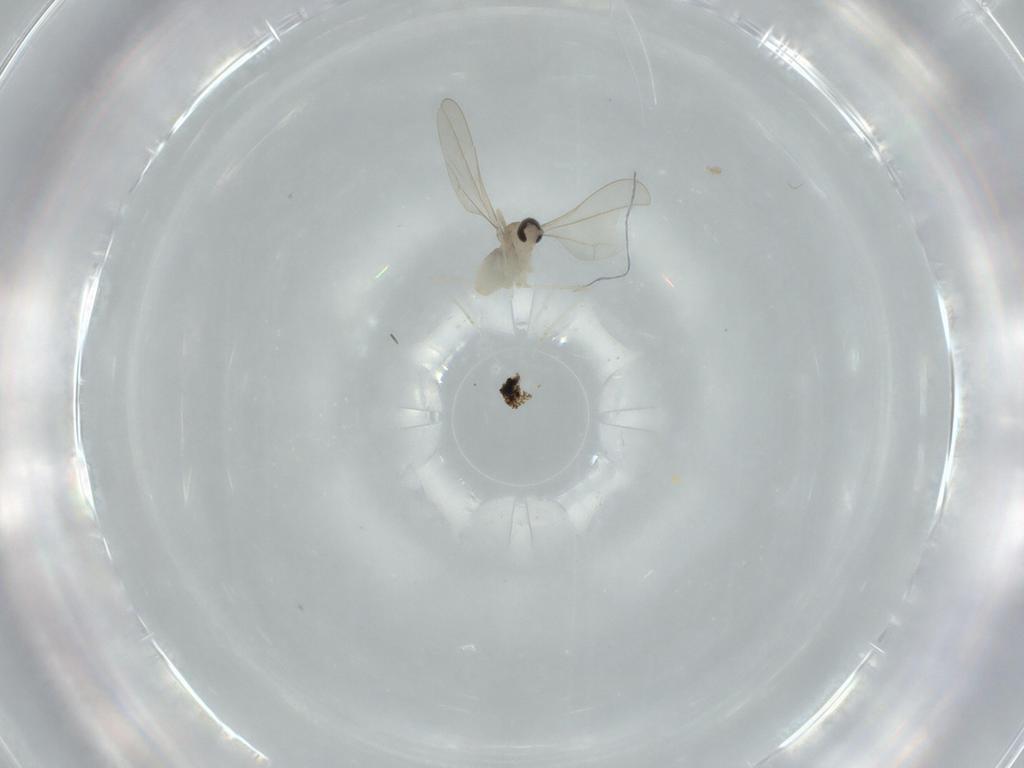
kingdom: Animalia
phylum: Arthropoda
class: Insecta
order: Diptera
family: Cecidomyiidae
